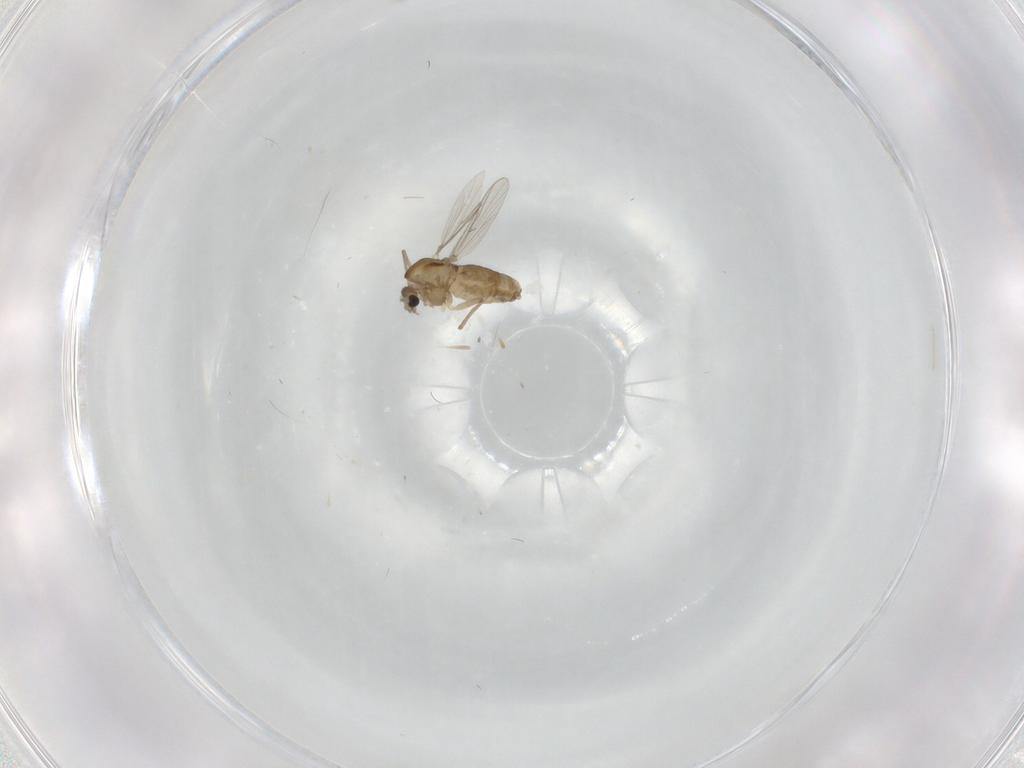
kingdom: Animalia
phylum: Arthropoda
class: Insecta
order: Diptera
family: Chironomidae
